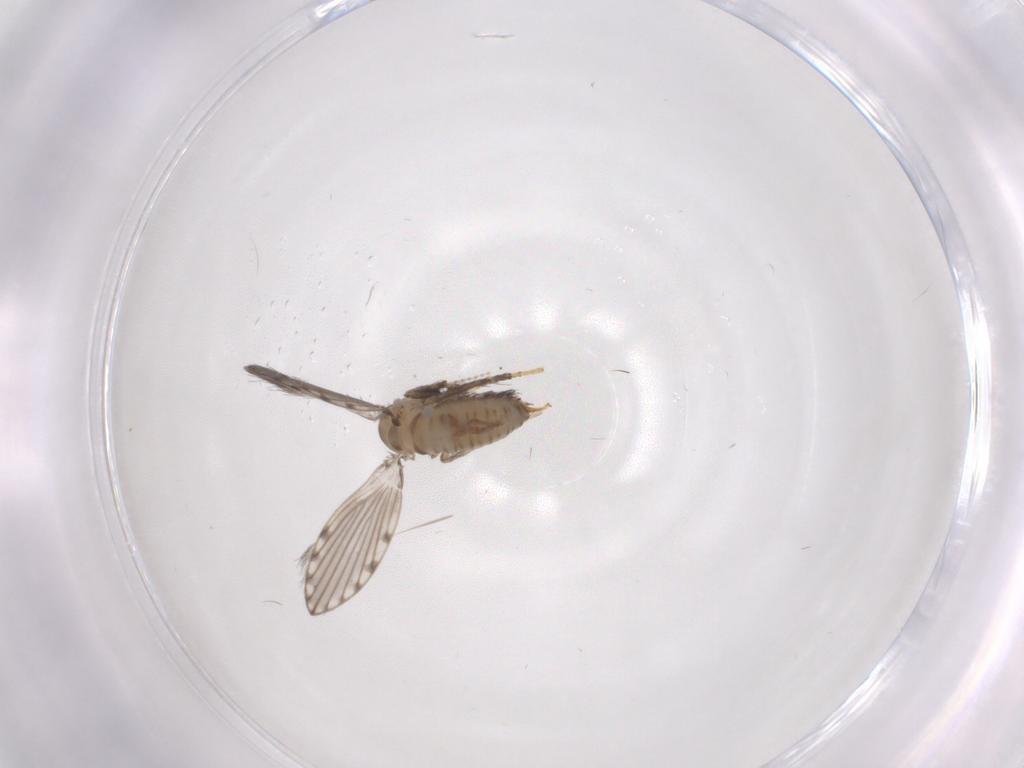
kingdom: Animalia
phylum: Arthropoda
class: Insecta
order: Diptera
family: Psychodidae
